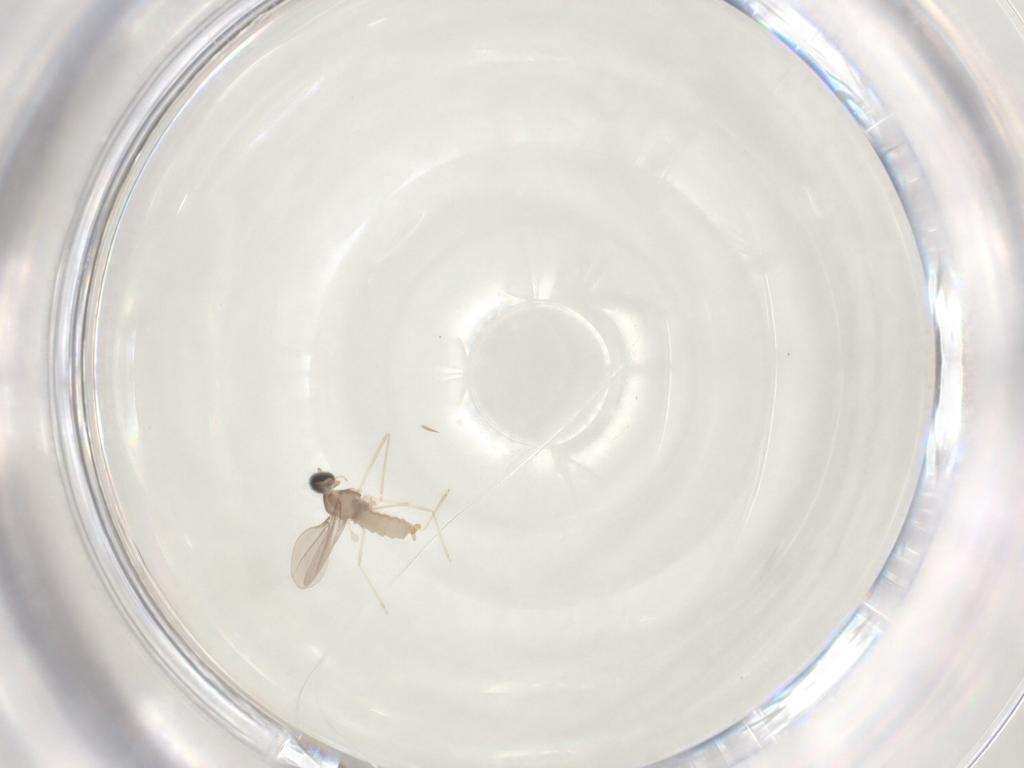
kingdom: Animalia
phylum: Arthropoda
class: Insecta
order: Diptera
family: Cecidomyiidae
